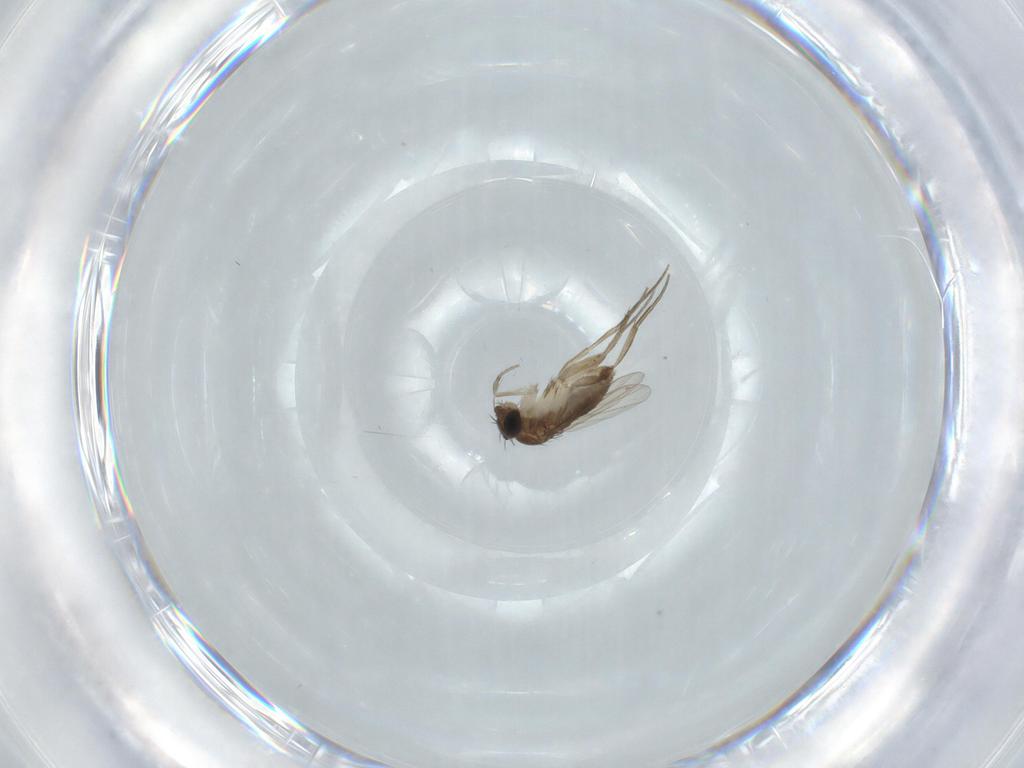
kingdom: Animalia
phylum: Arthropoda
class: Insecta
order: Diptera
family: Phoridae
